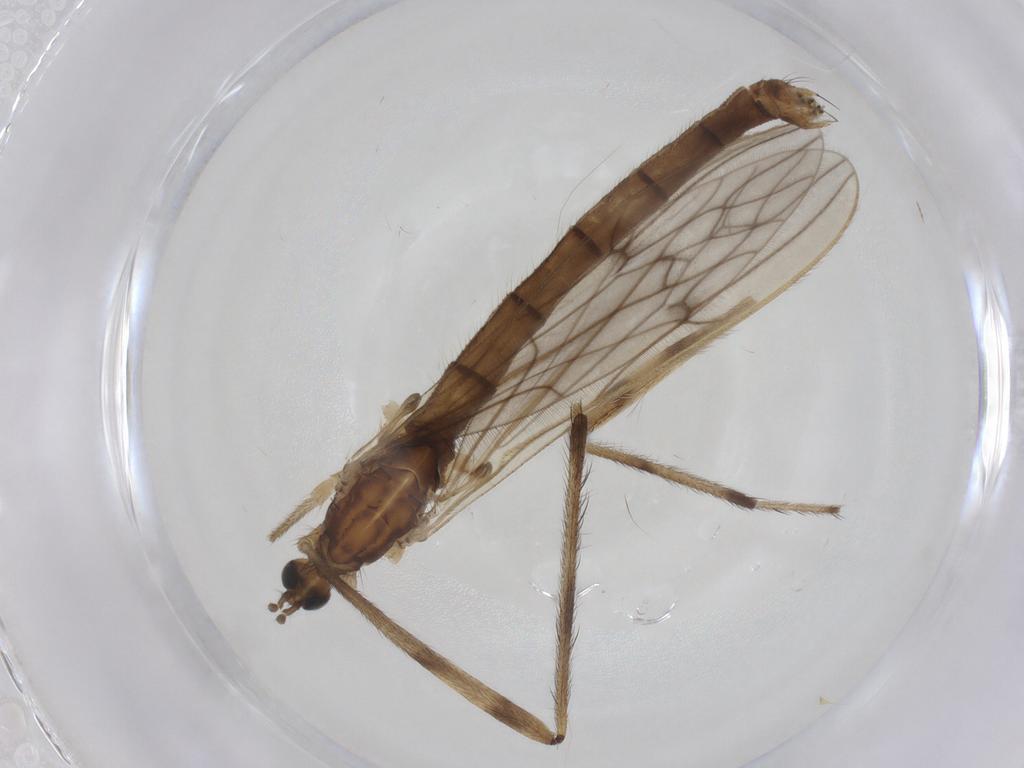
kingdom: Animalia
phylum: Arthropoda
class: Insecta
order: Diptera
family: Limoniidae
